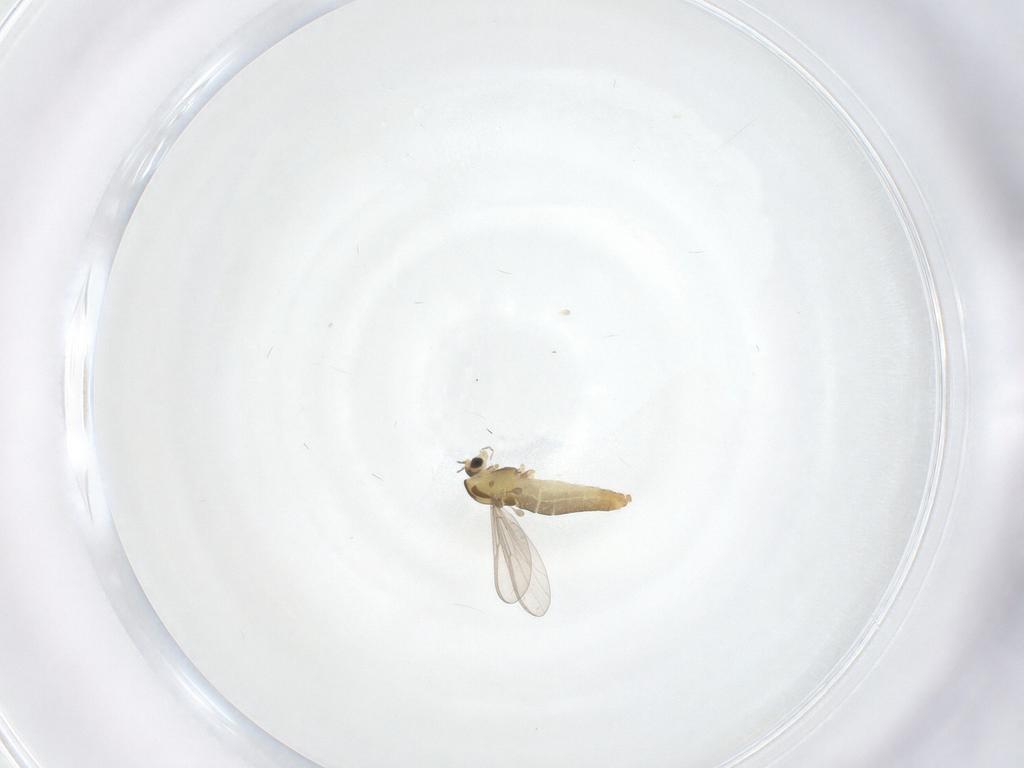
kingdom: Animalia
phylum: Arthropoda
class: Insecta
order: Diptera
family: Chironomidae
